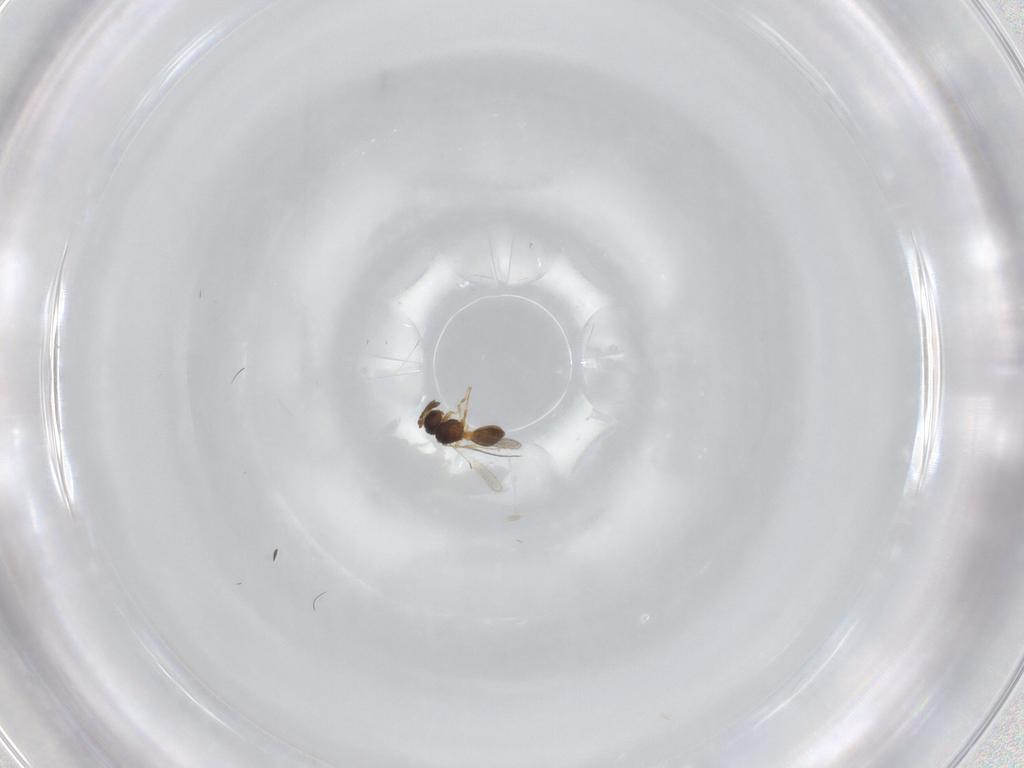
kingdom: Animalia
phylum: Arthropoda
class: Insecta
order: Hymenoptera
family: Scelionidae
